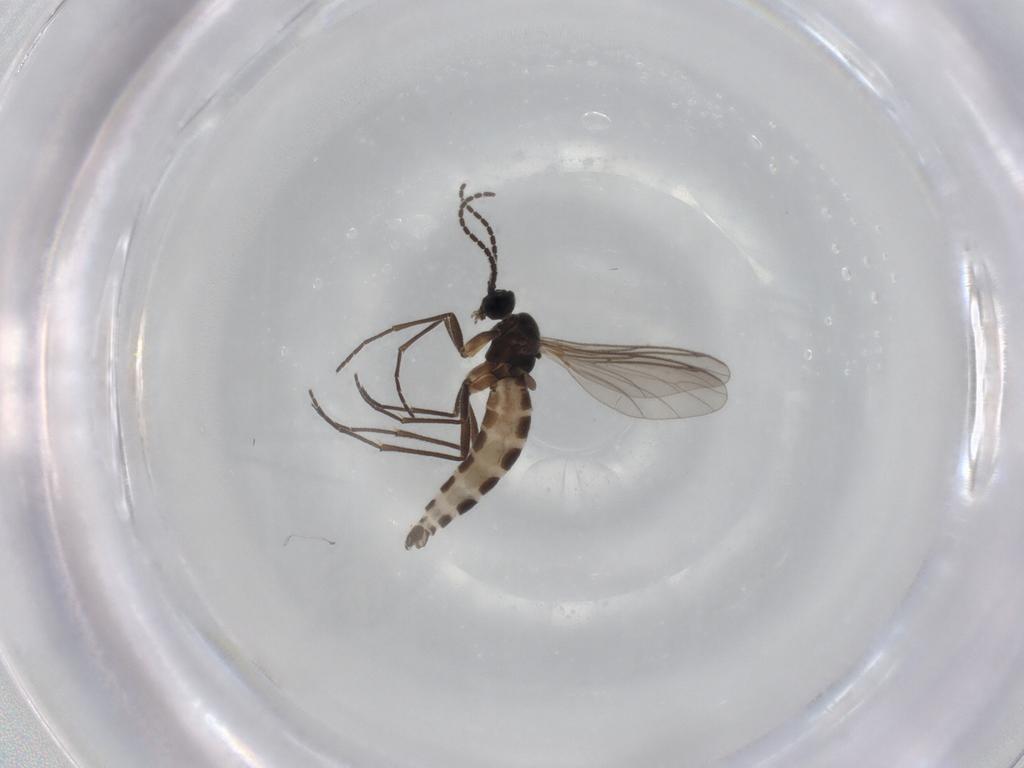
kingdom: Animalia
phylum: Arthropoda
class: Insecta
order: Diptera
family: Sciaridae
